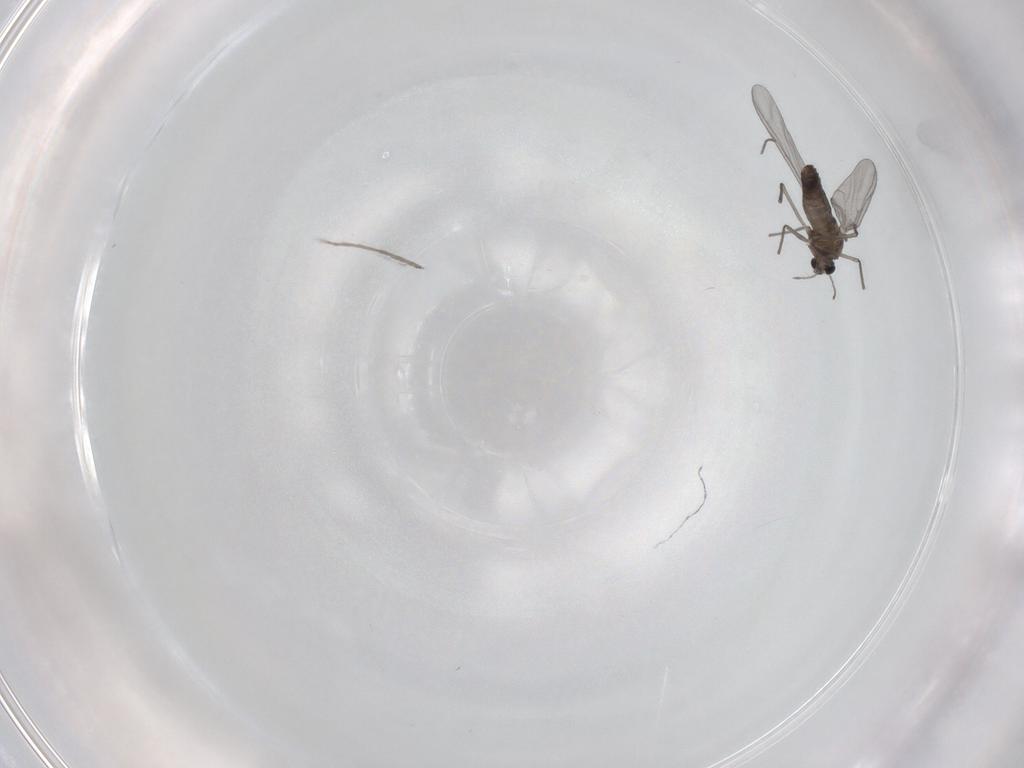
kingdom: Animalia
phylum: Arthropoda
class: Insecta
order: Diptera
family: Chironomidae
